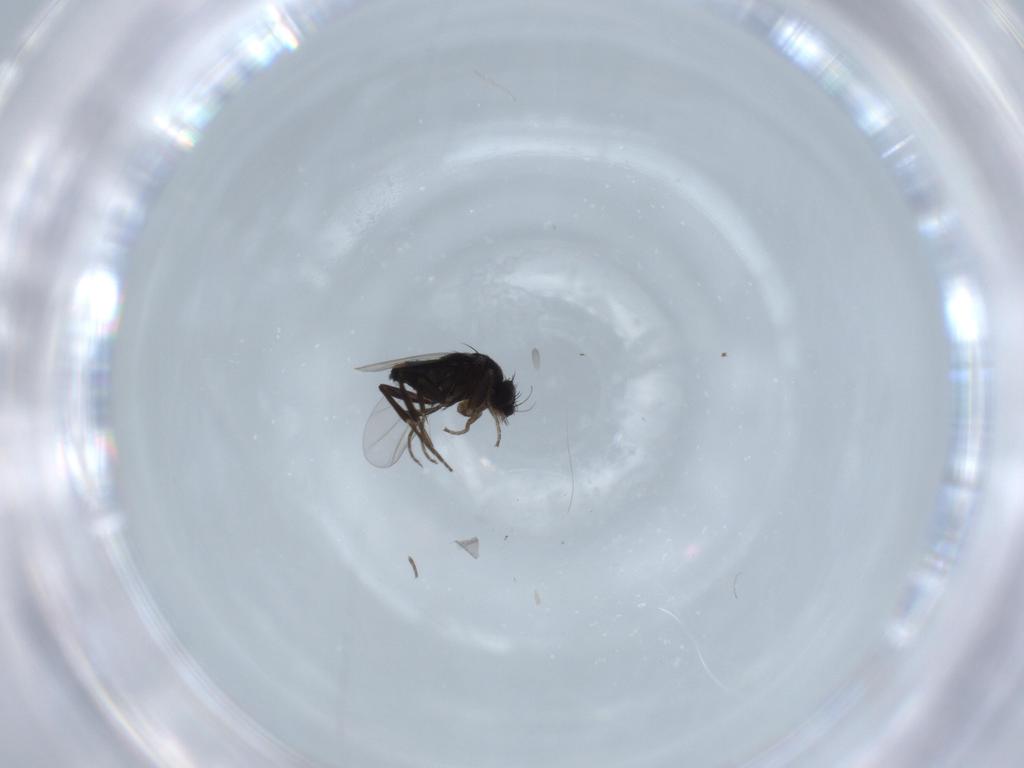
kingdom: Animalia
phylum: Arthropoda
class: Insecta
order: Diptera
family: Phoridae
